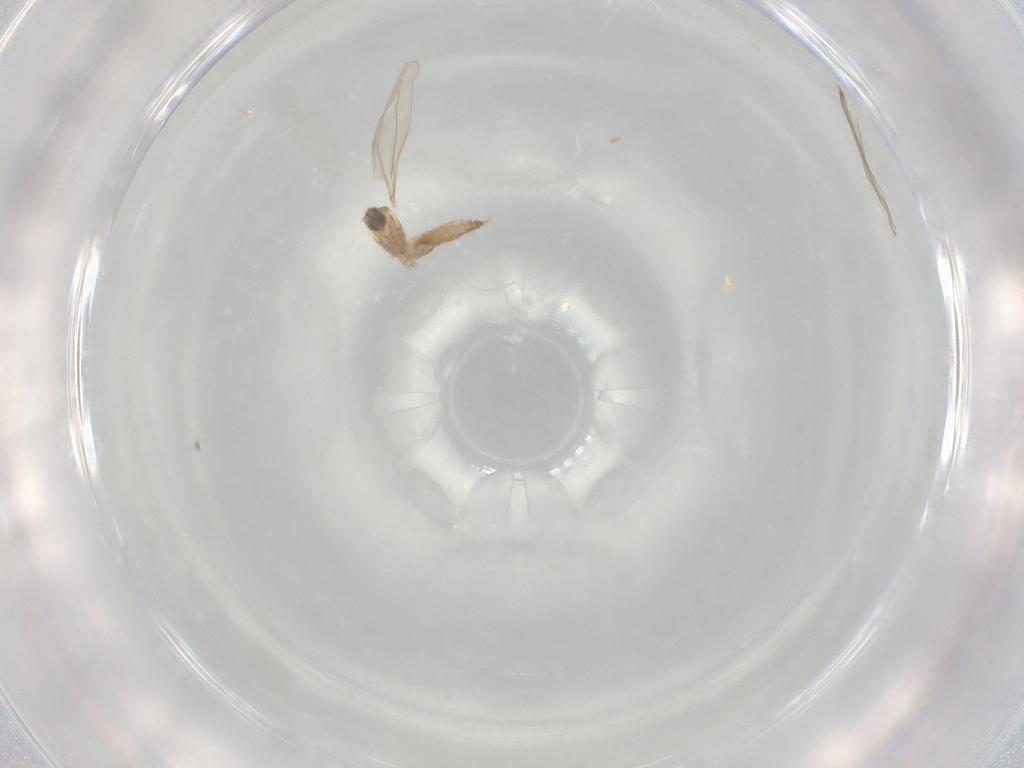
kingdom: Animalia
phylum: Arthropoda
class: Insecta
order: Diptera
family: Cecidomyiidae
